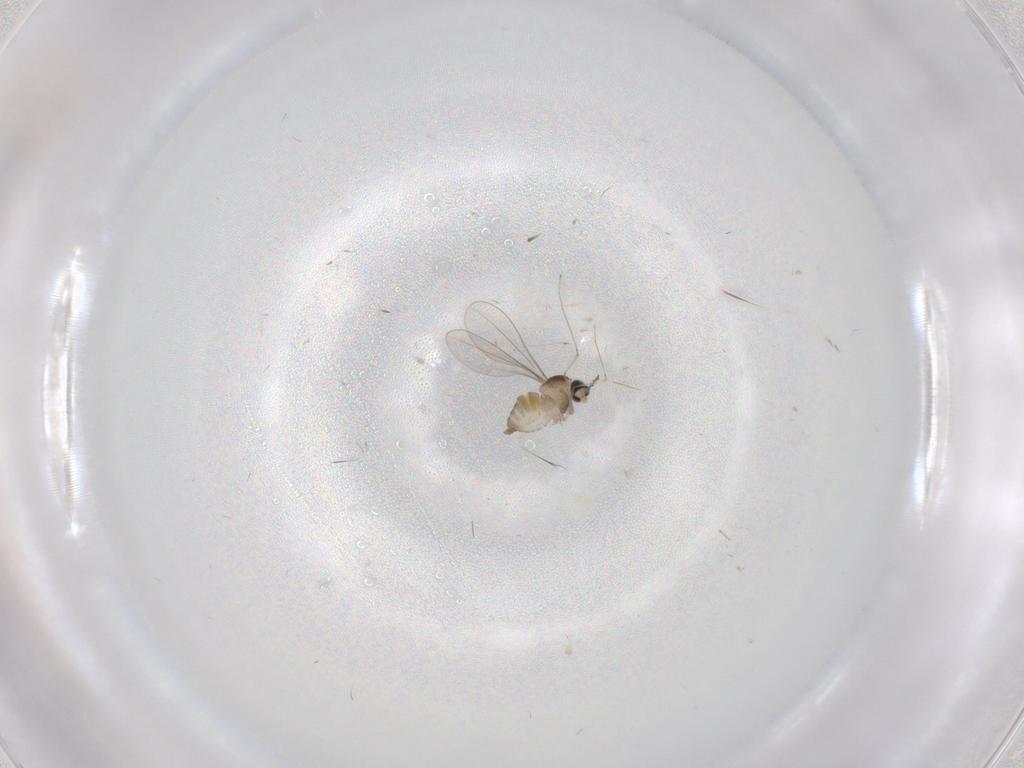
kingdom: Animalia
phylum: Arthropoda
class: Insecta
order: Diptera
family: Cecidomyiidae
